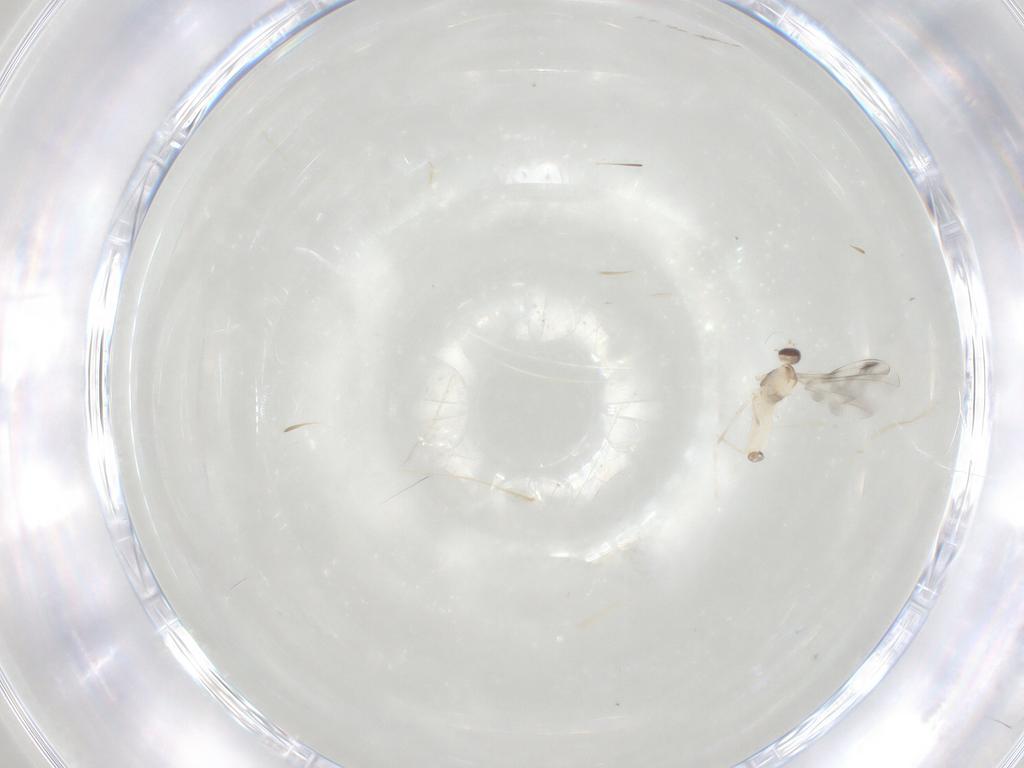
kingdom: Animalia
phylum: Arthropoda
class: Insecta
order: Diptera
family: Cecidomyiidae
